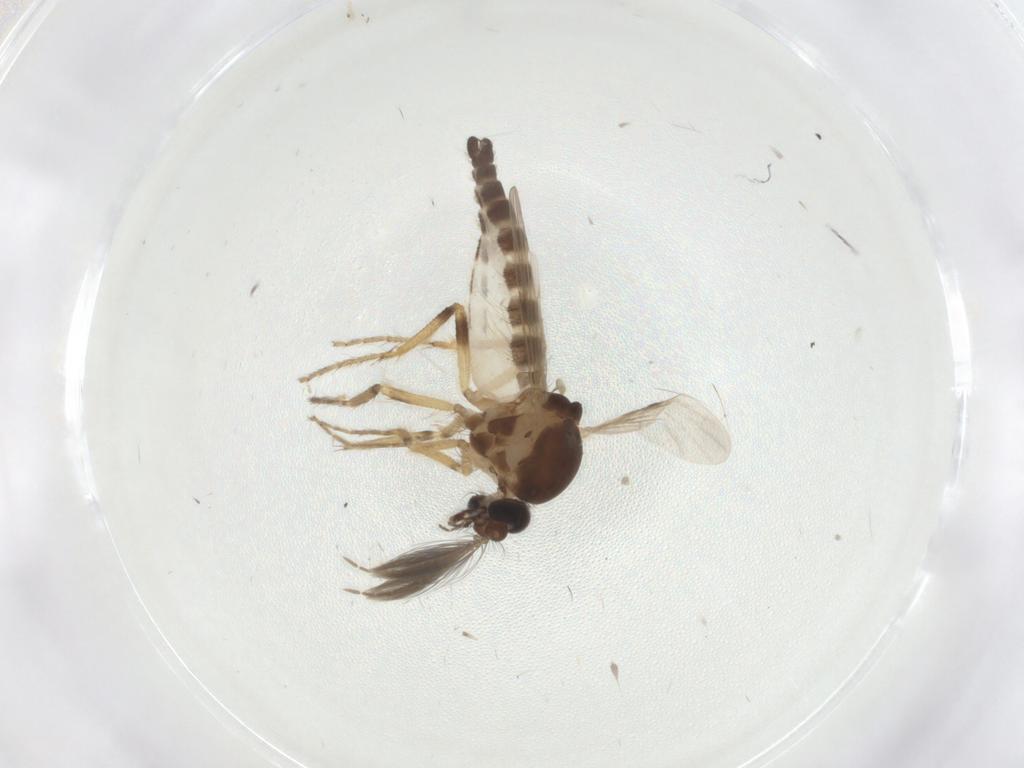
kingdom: Animalia
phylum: Arthropoda
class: Insecta
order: Diptera
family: Ceratopogonidae
